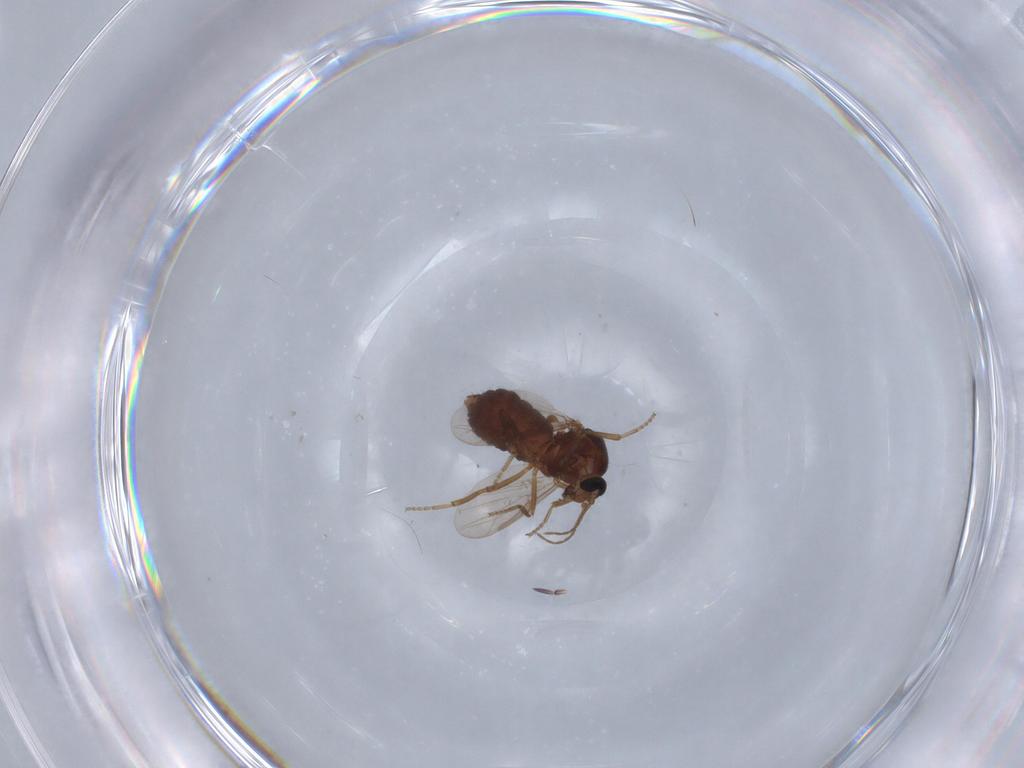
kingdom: Animalia
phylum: Arthropoda
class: Insecta
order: Diptera
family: Ceratopogonidae
